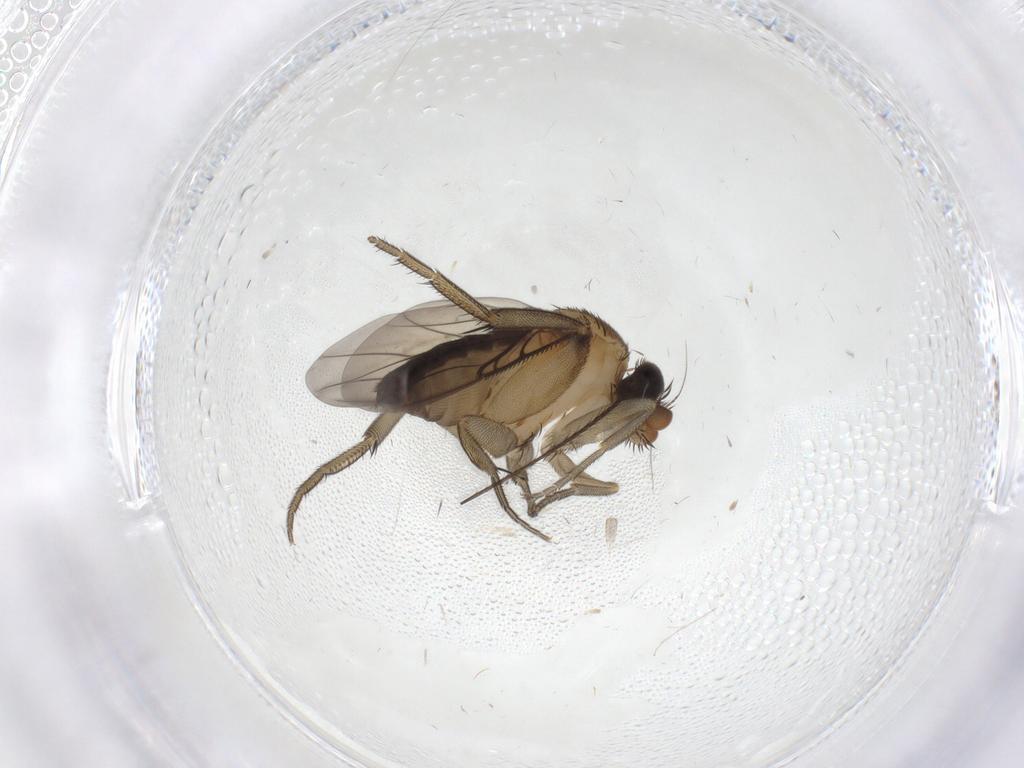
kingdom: Animalia
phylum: Arthropoda
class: Insecta
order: Diptera
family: Phoridae
